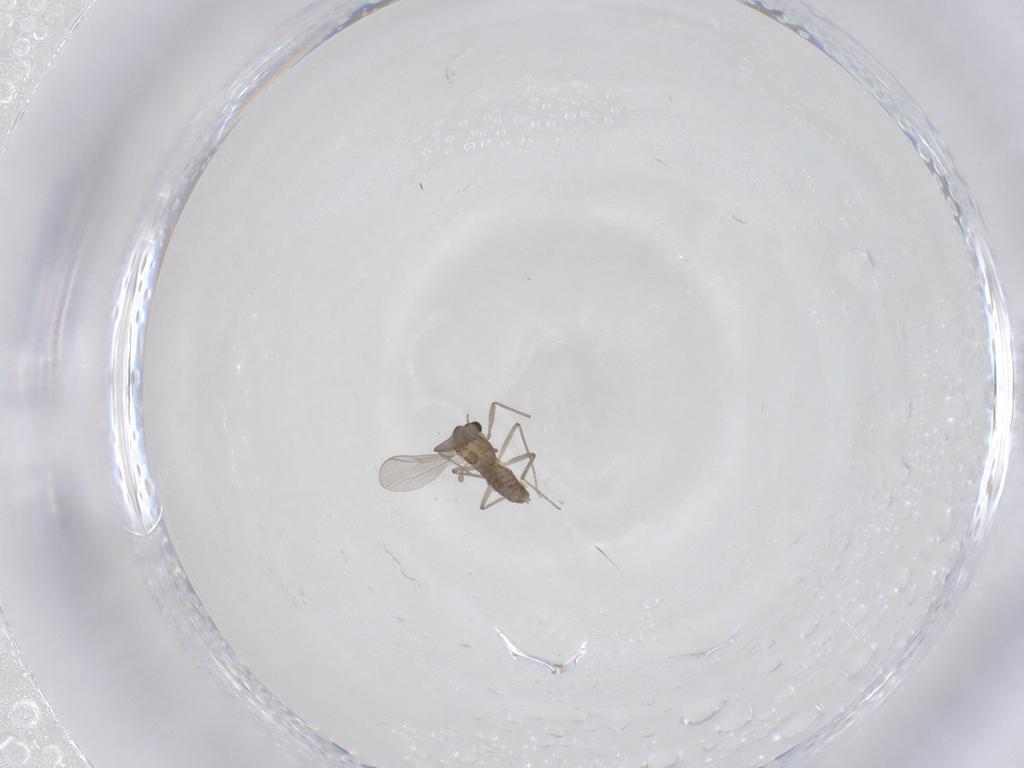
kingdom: Animalia
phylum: Arthropoda
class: Insecta
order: Diptera
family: Chironomidae
